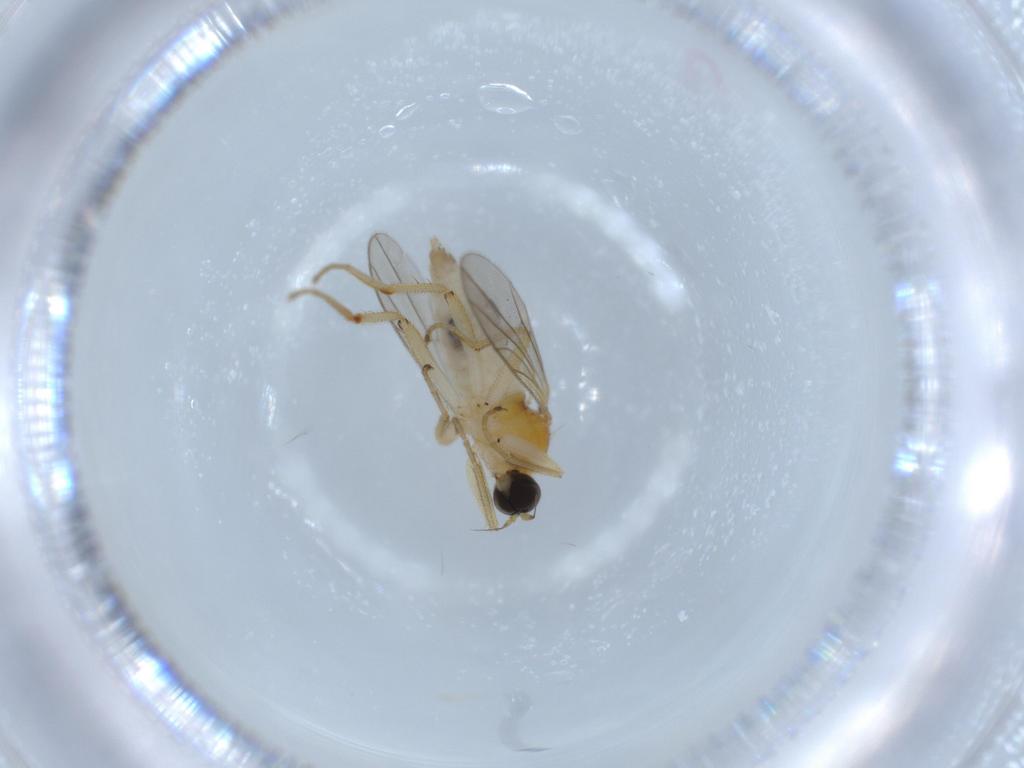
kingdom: Animalia
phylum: Arthropoda
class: Insecta
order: Diptera
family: Hybotidae
